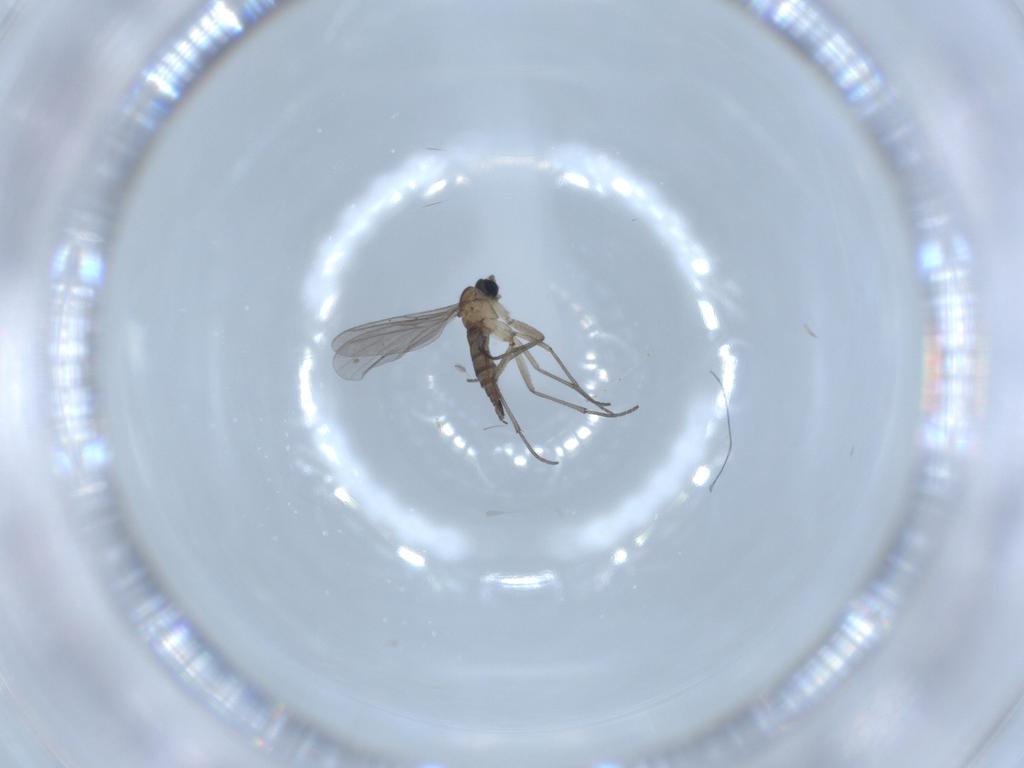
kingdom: Animalia
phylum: Arthropoda
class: Insecta
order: Diptera
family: Sciaridae
